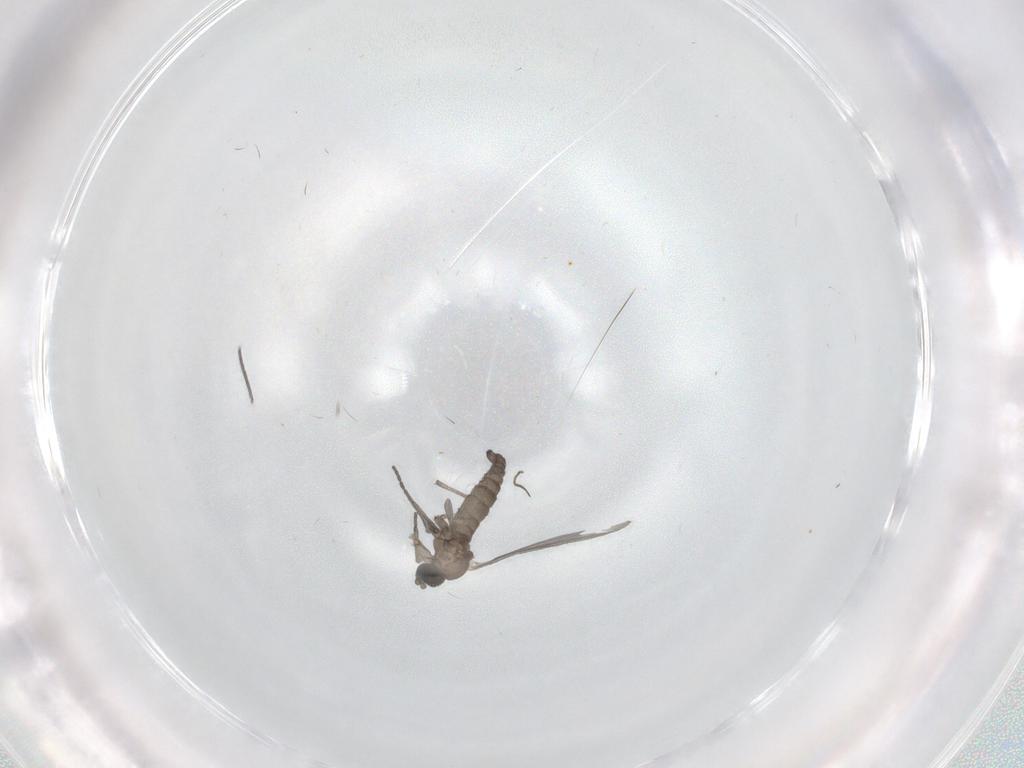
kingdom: Animalia
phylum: Arthropoda
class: Insecta
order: Diptera
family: Sciaridae
